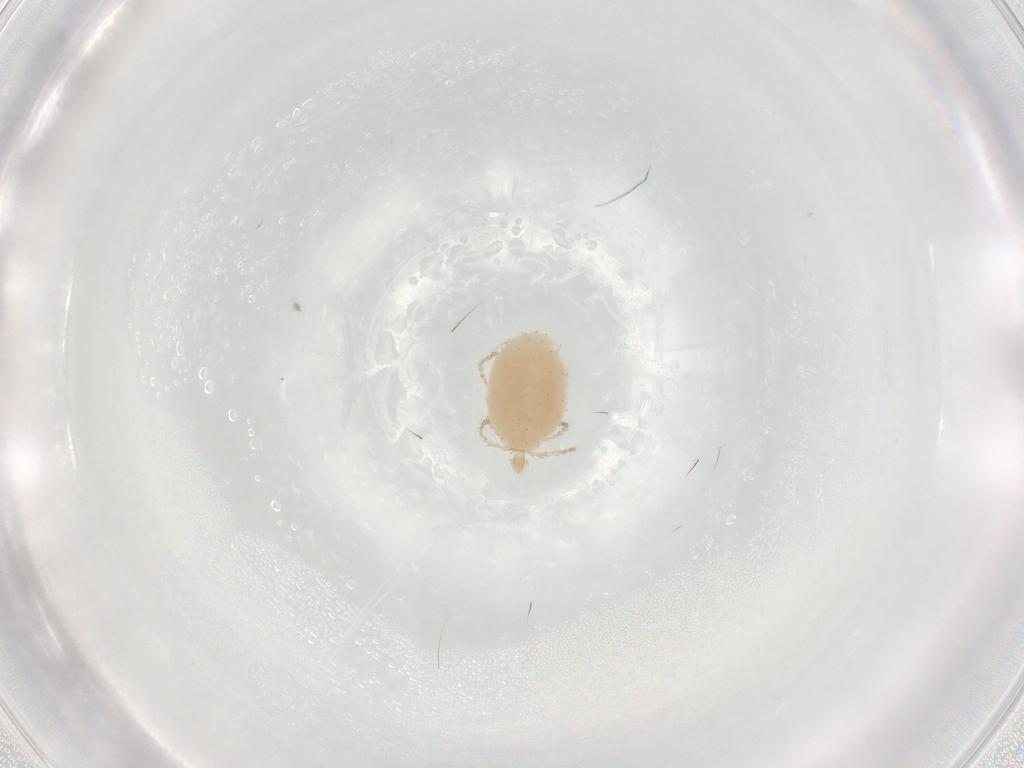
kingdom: Animalia
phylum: Arthropoda
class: Arachnida
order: Trombidiformes
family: Erythraeidae
